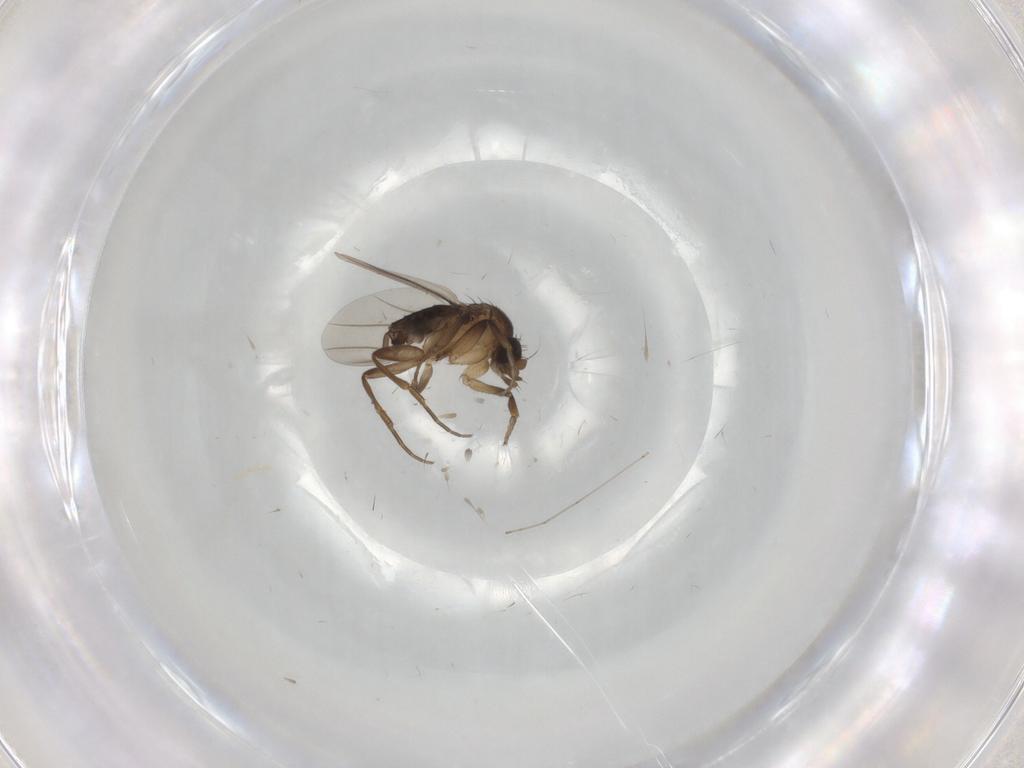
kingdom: Animalia
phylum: Arthropoda
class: Insecta
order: Diptera
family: Phoridae
